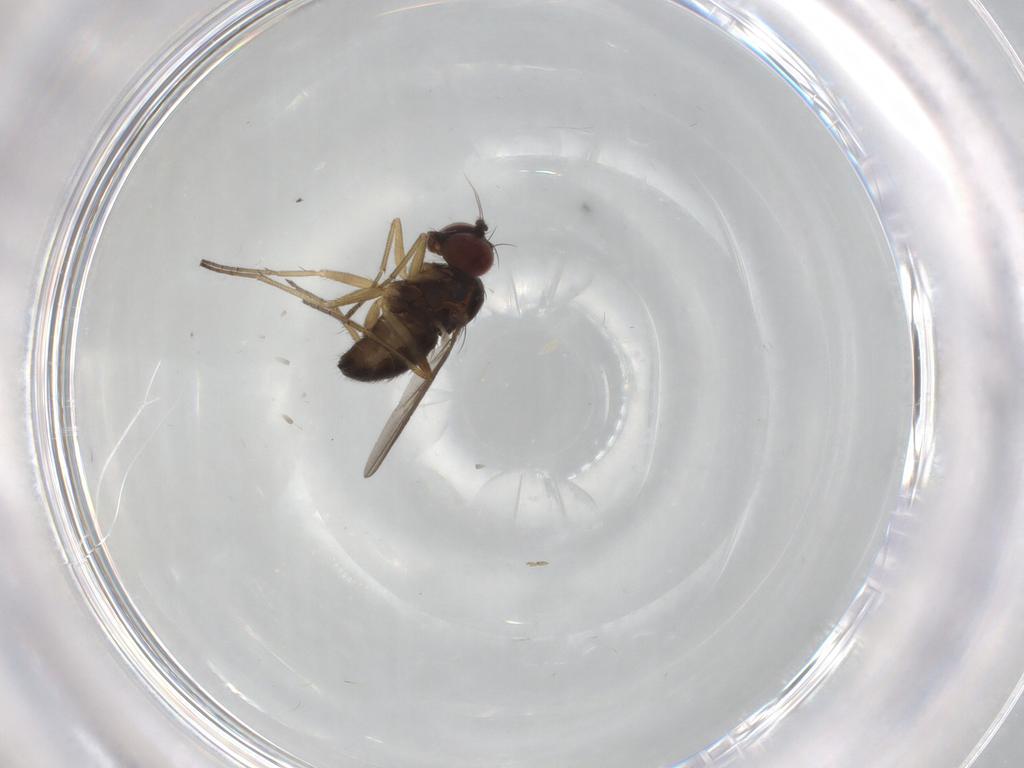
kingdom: Animalia
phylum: Arthropoda
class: Insecta
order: Diptera
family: Dolichopodidae
